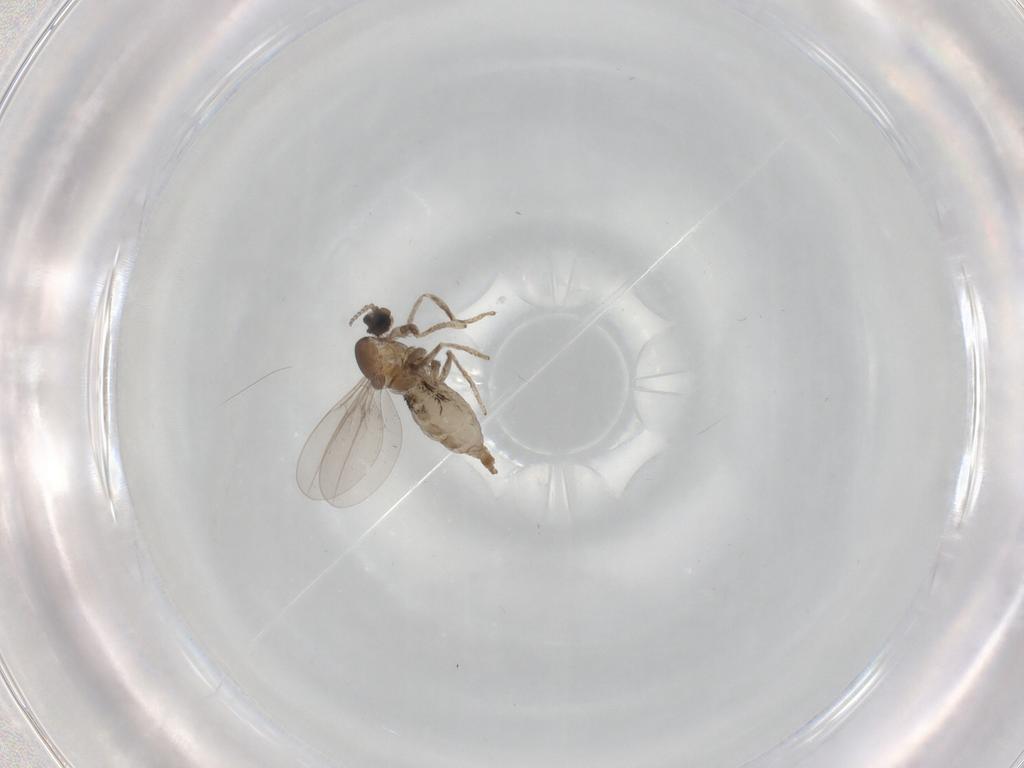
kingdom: Animalia
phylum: Arthropoda
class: Insecta
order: Diptera
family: Cecidomyiidae
